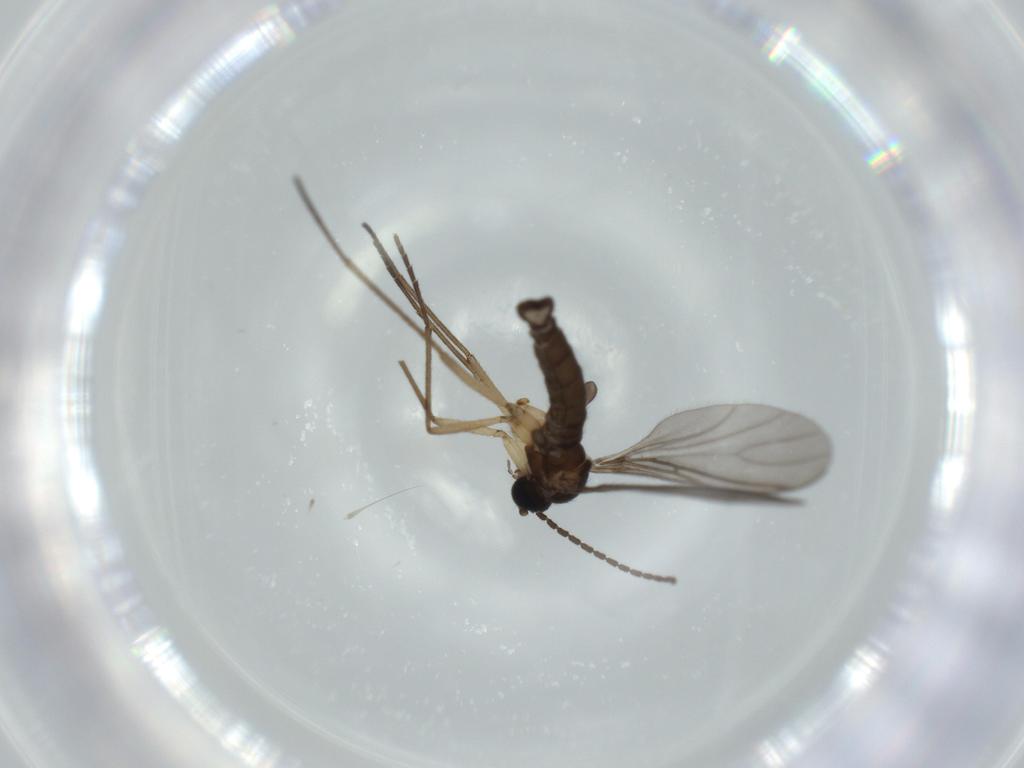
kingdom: Animalia
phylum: Arthropoda
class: Insecta
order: Diptera
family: Sciaridae
